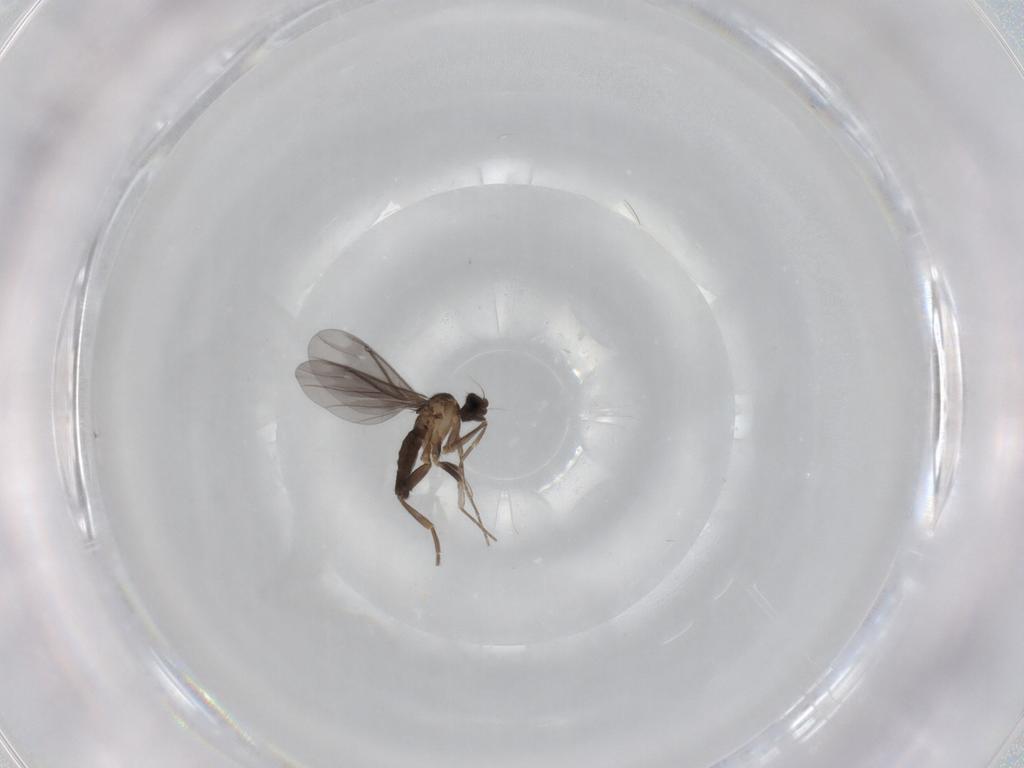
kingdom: Animalia
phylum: Arthropoda
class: Insecta
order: Diptera
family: Phoridae
